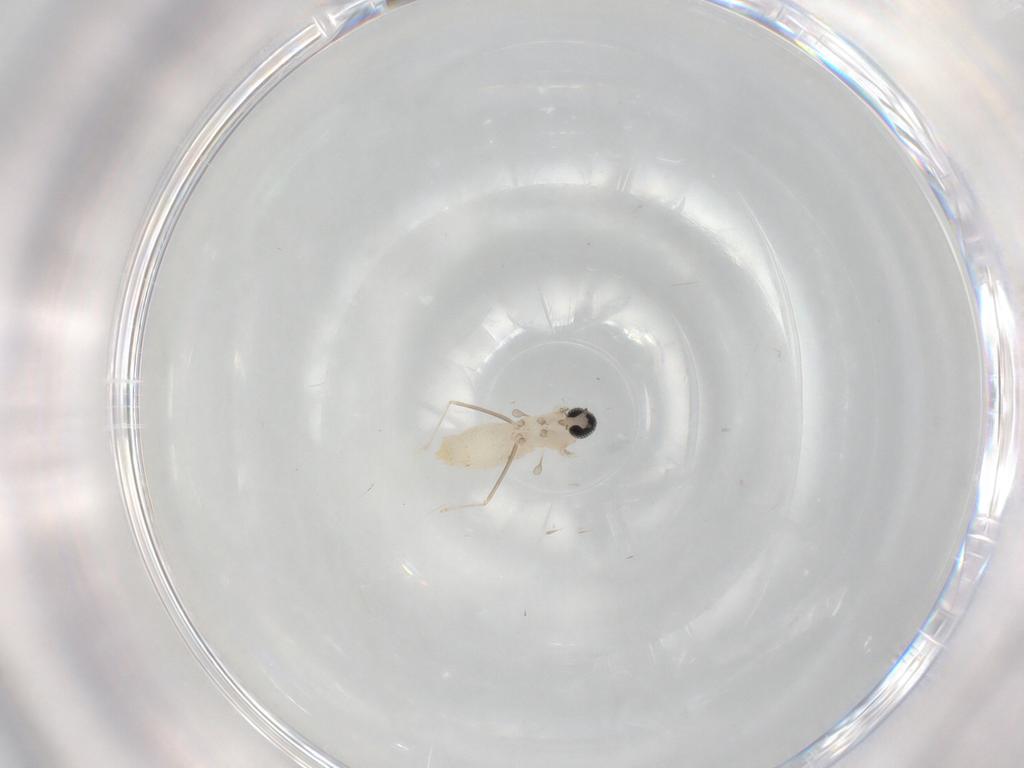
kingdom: Animalia
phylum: Arthropoda
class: Insecta
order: Diptera
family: Cecidomyiidae
